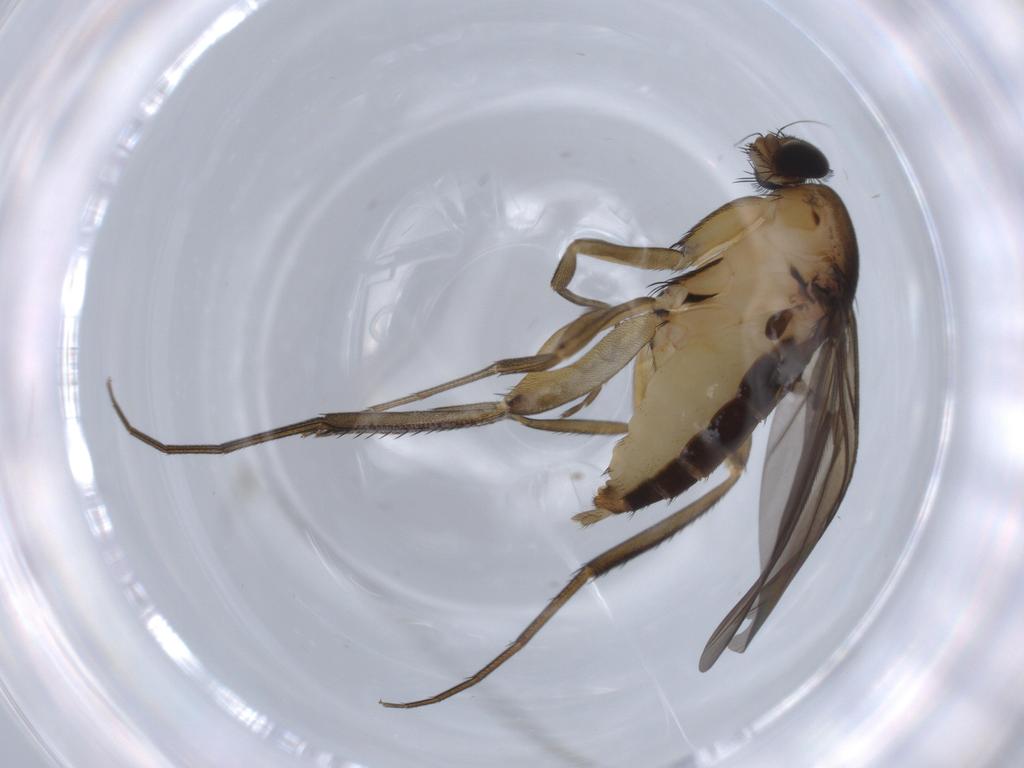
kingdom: Animalia
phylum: Arthropoda
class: Insecta
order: Diptera
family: Phoridae
